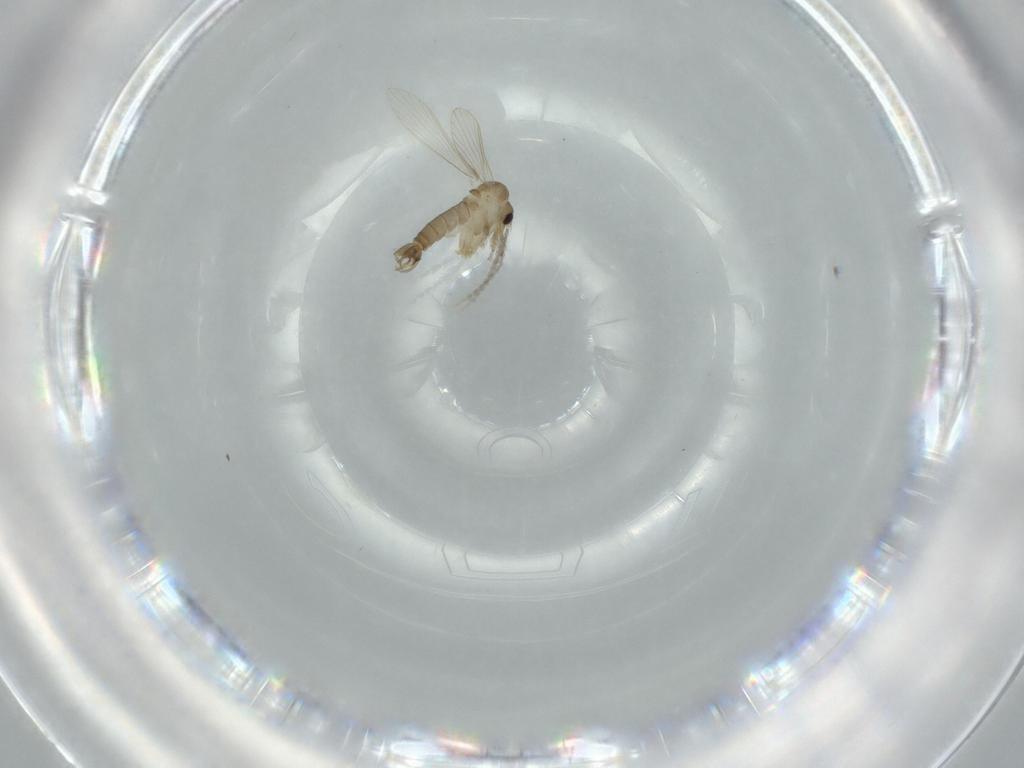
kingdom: Animalia
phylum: Arthropoda
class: Insecta
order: Diptera
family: Psychodidae
